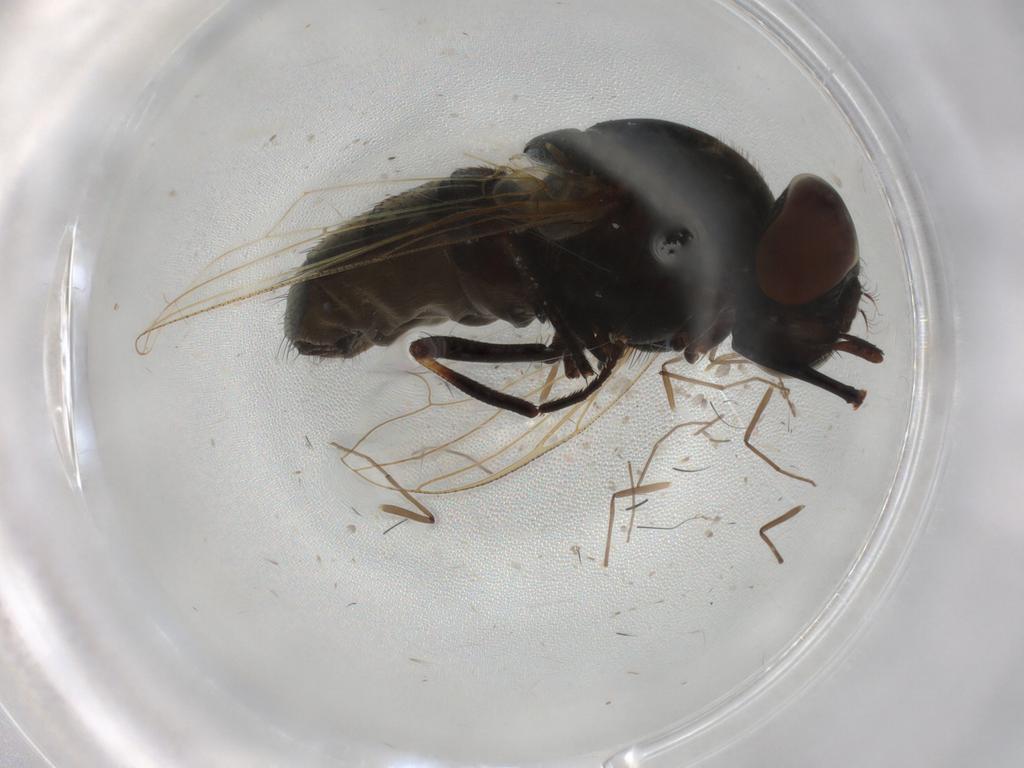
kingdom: Animalia
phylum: Arthropoda
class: Insecta
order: Diptera
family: Muscidae
